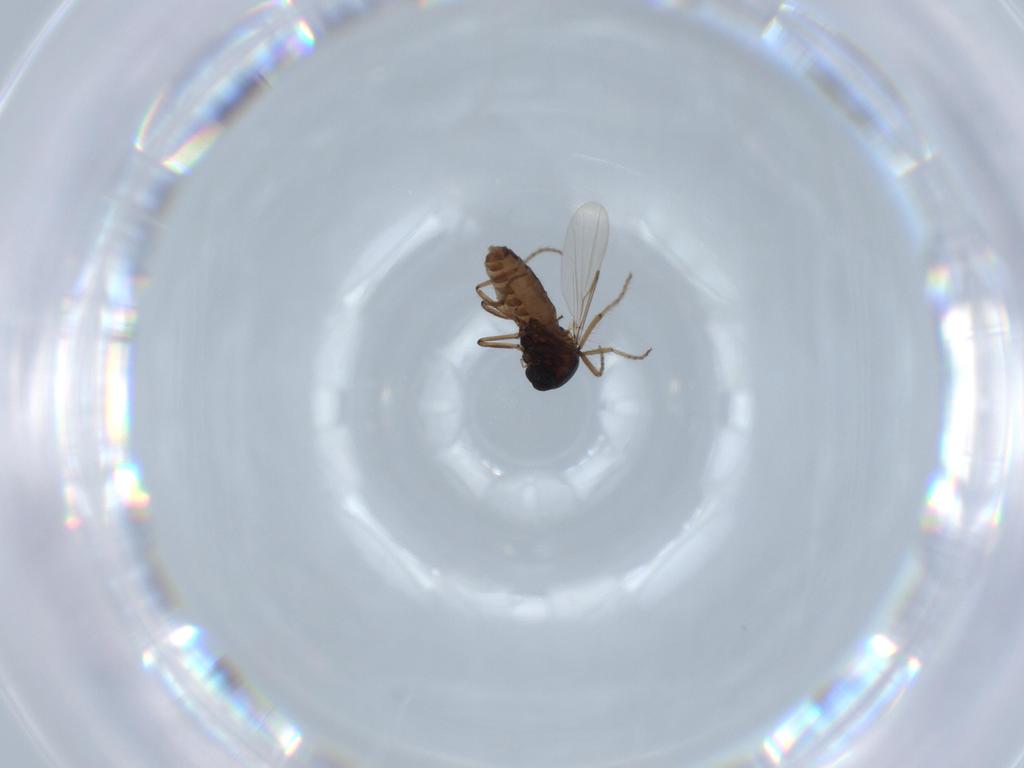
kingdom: Animalia
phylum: Arthropoda
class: Insecta
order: Diptera
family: Ceratopogonidae
